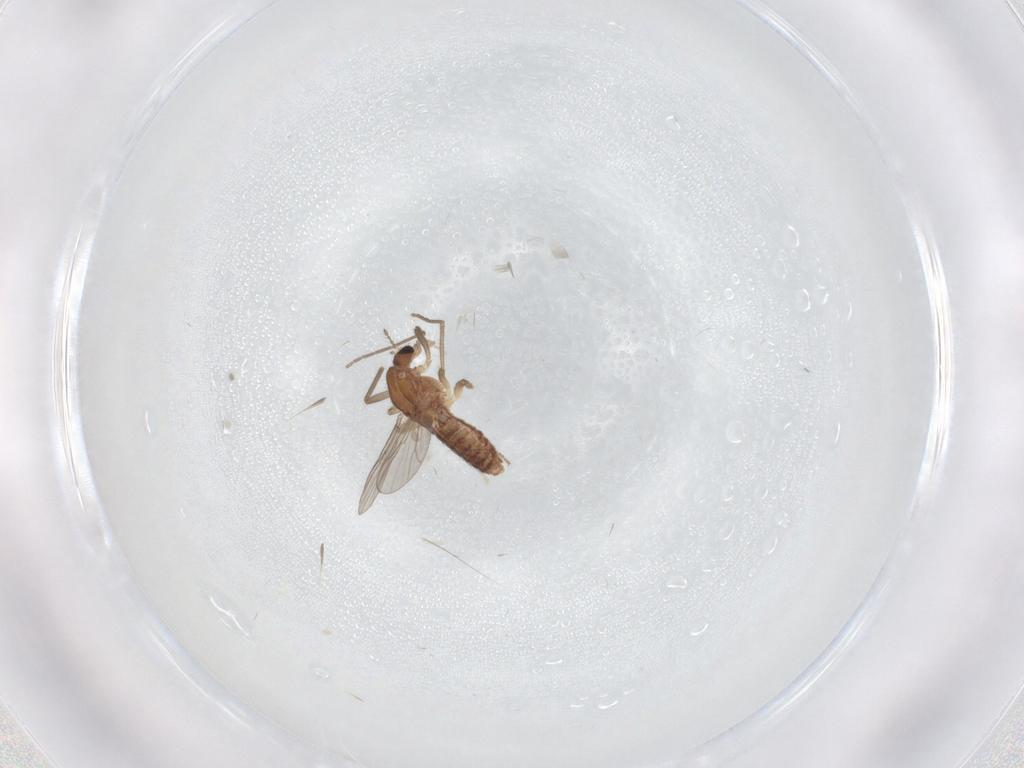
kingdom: Animalia
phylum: Arthropoda
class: Insecta
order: Diptera
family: Chironomidae
